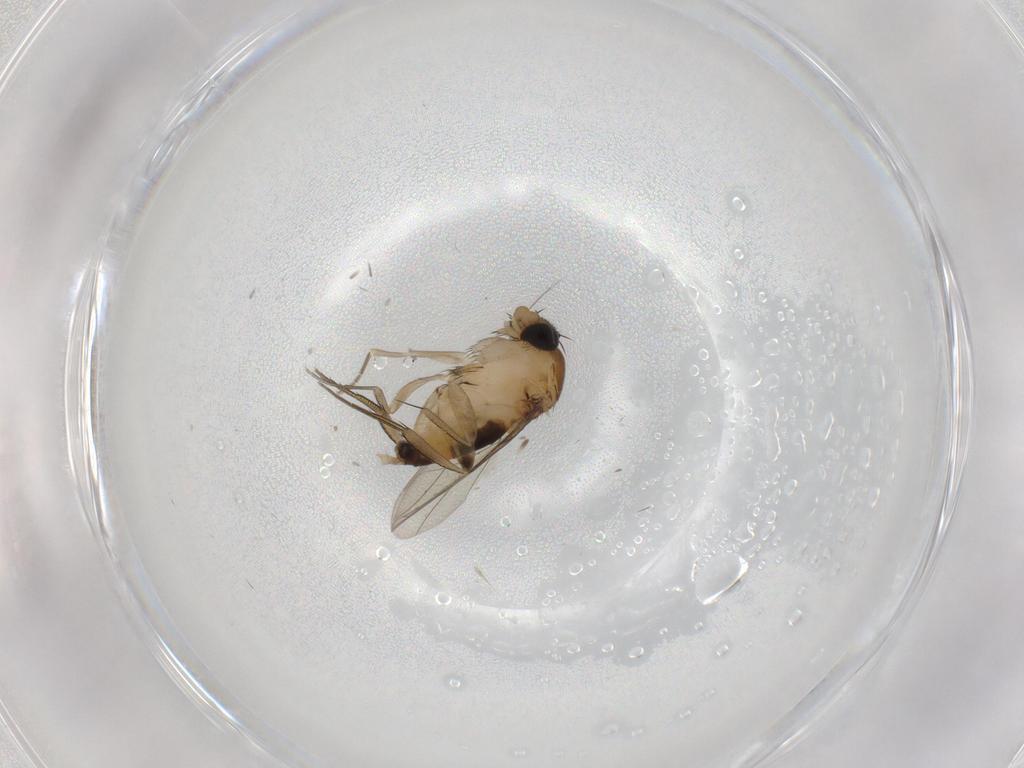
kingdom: Animalia
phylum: Arthropoda
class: Insecta
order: Diptera
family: Phoridae
